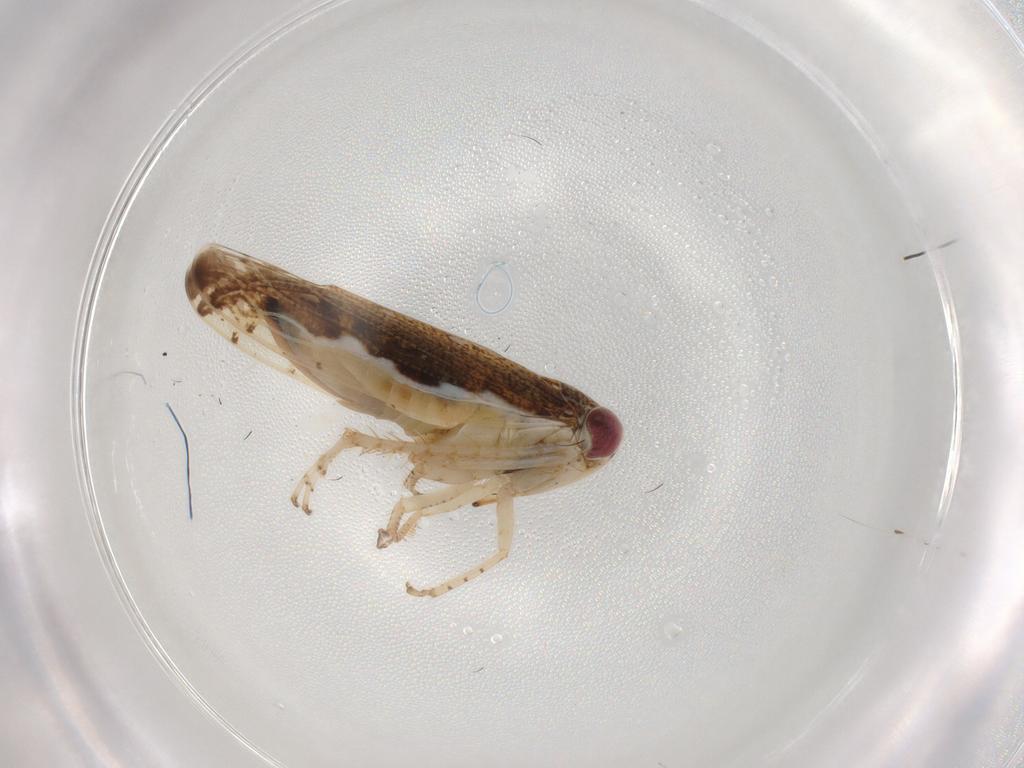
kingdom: Animalia
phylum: Arthropoda
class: Insecta
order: Hemiptera
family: Cicadellidae
